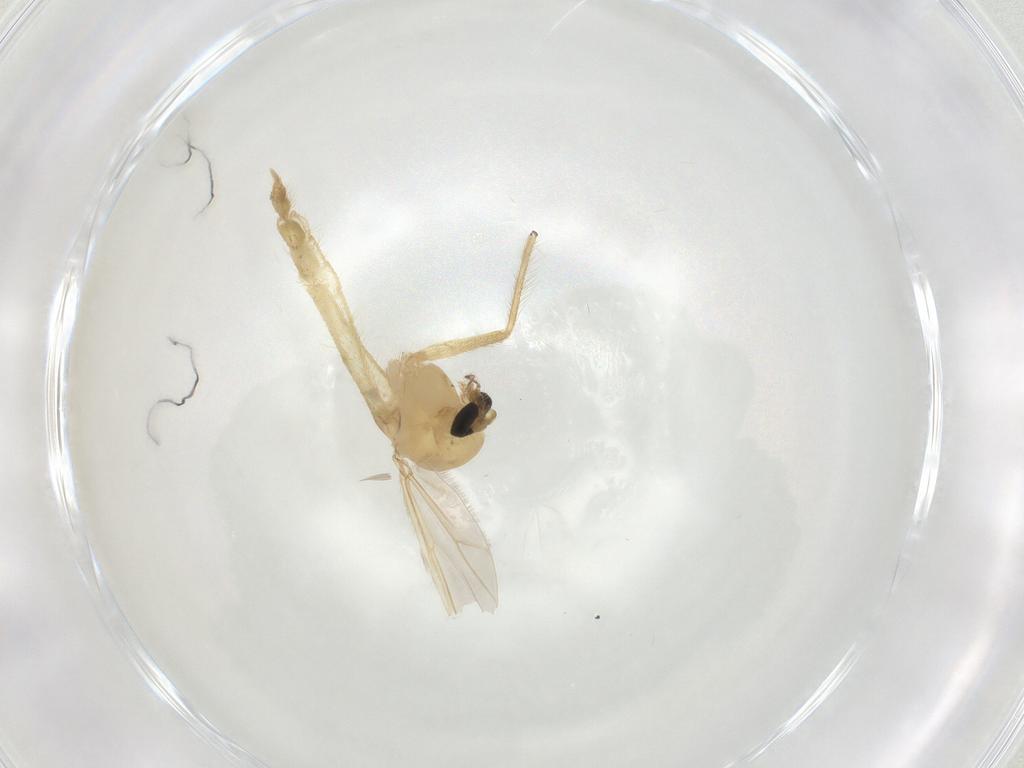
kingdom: Animalia
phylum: Arthropoda
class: Insecta
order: Diptera
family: Chironomidae
